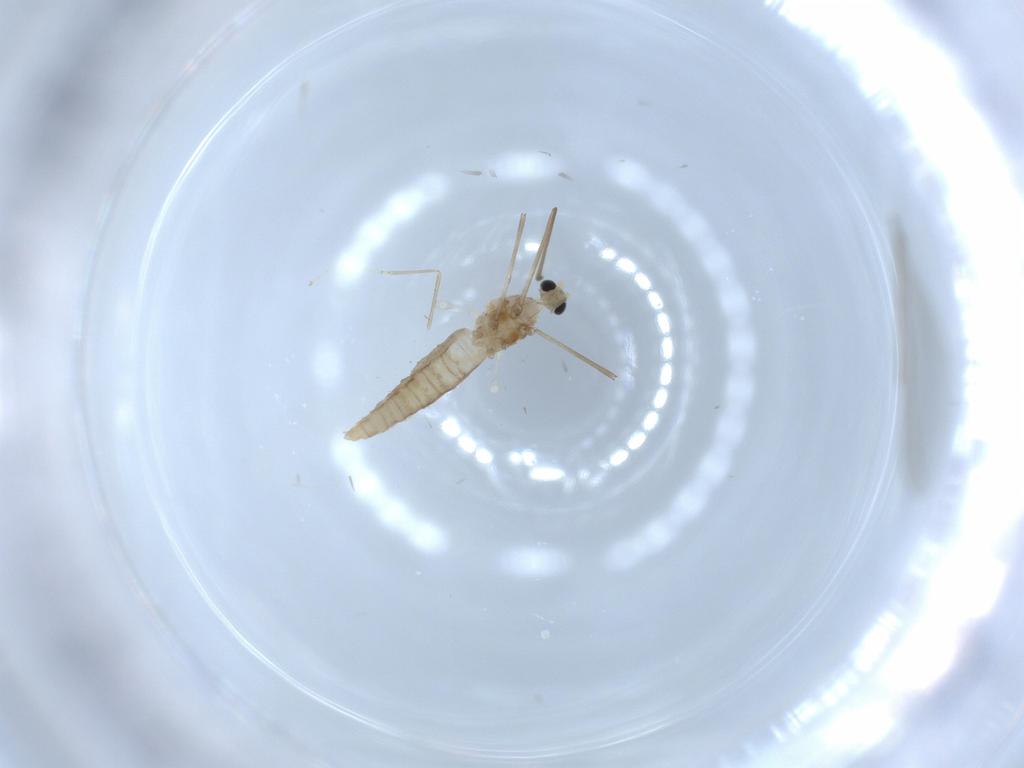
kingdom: Animalia
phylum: Arthropoda
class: Insecta
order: Diptera
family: Cecidomyiidae
